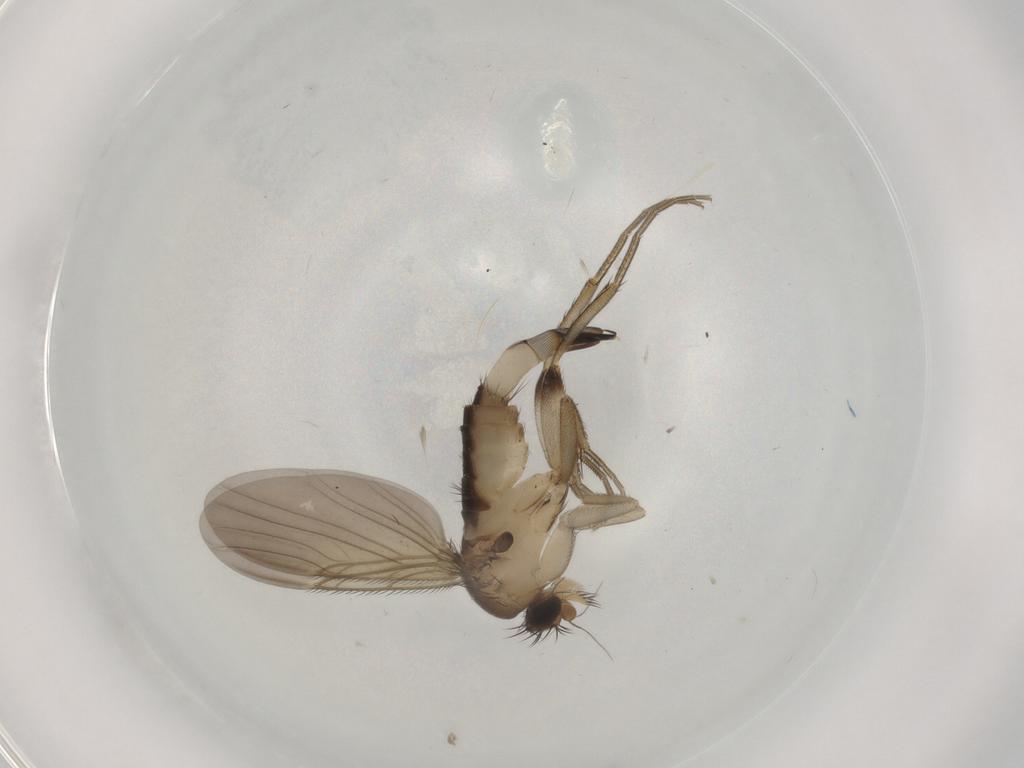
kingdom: Animalia
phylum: Arthropoda
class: Insecta
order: Diptera
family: Phoridae
